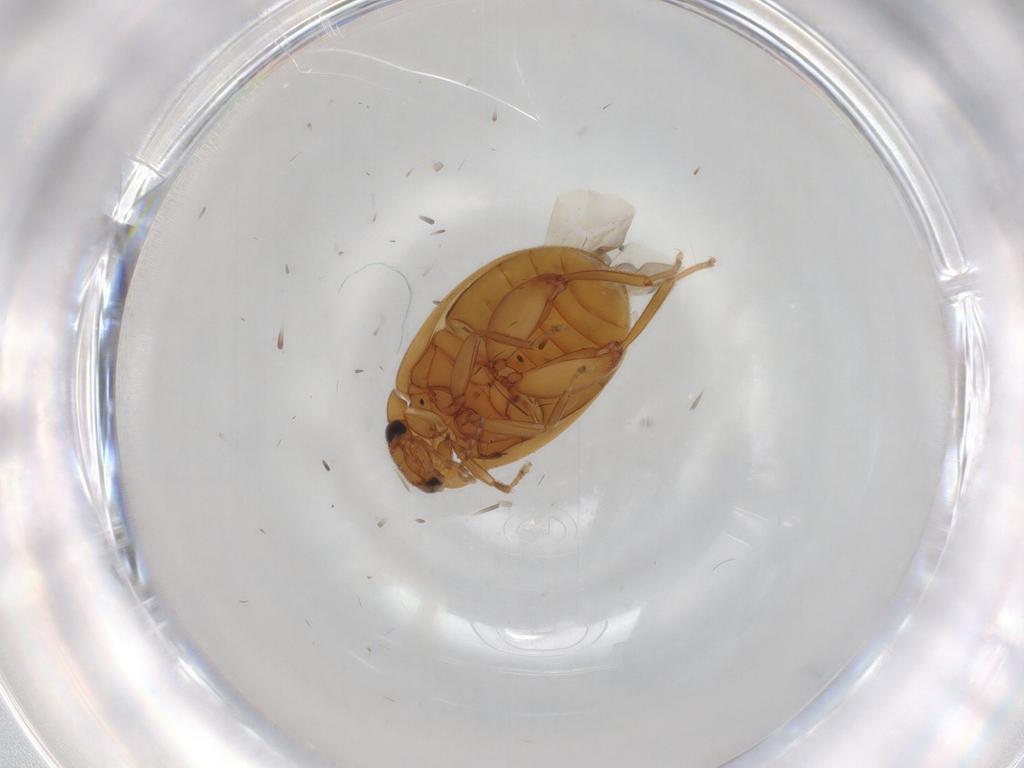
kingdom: Animalia
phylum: Arthropoda
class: Insecta
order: Coleoptera
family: Scirtidae
